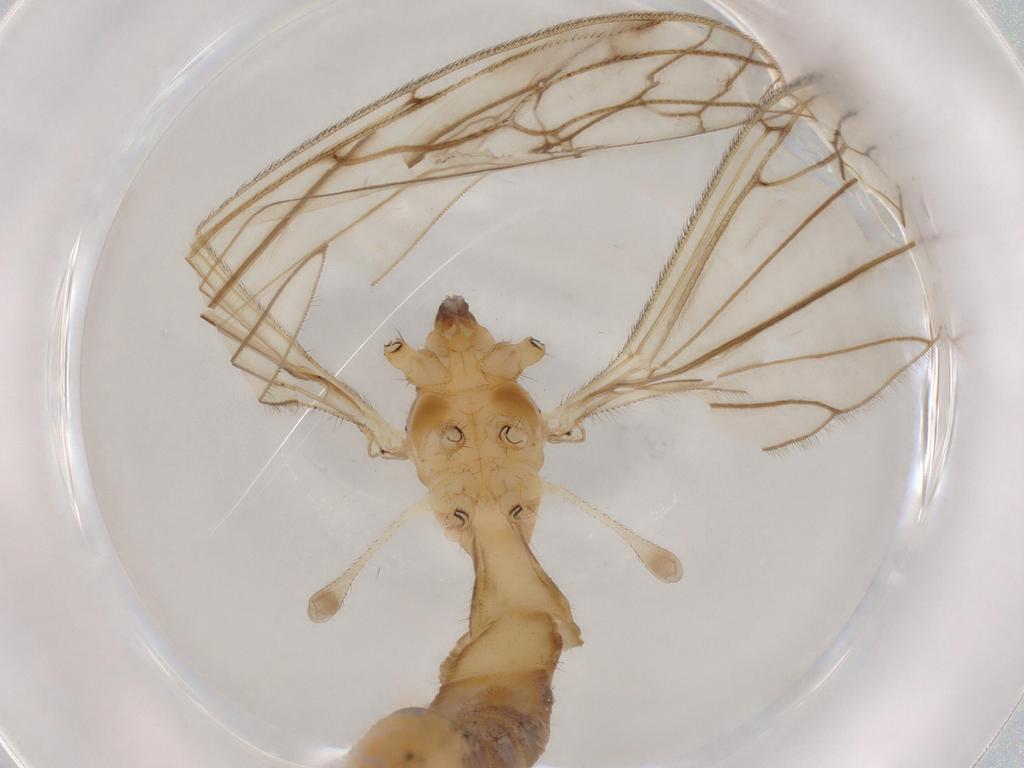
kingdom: Animalia
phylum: Arthropoda
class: Insecta
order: Diptera
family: Limoniidae
